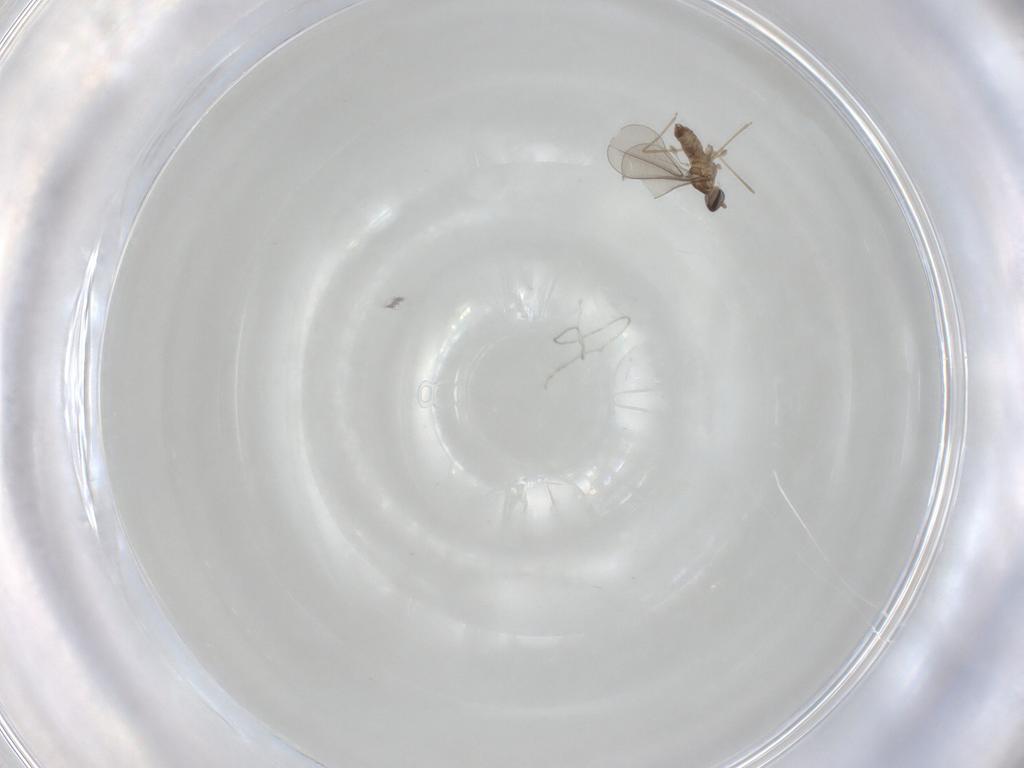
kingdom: Animalia
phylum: Arthropoda
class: Insecta
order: Diptera
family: Cecidomyiidae
